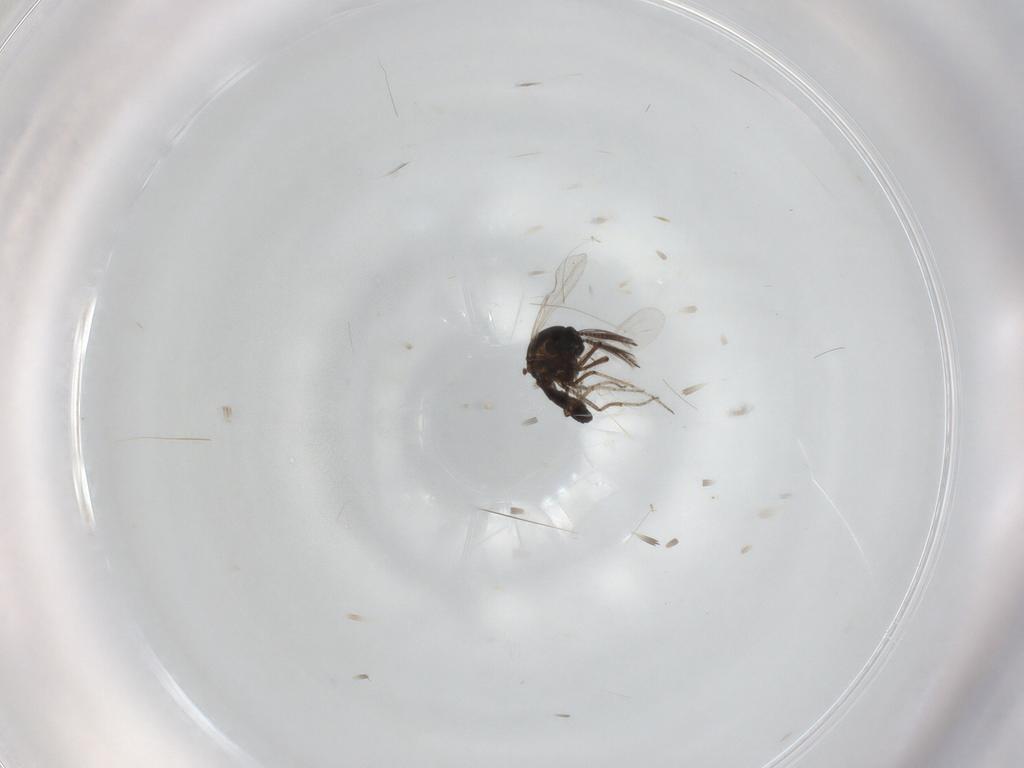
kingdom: Animalia
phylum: Arthropoda
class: Insecta
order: Diptera
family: Ceratopogonidae
